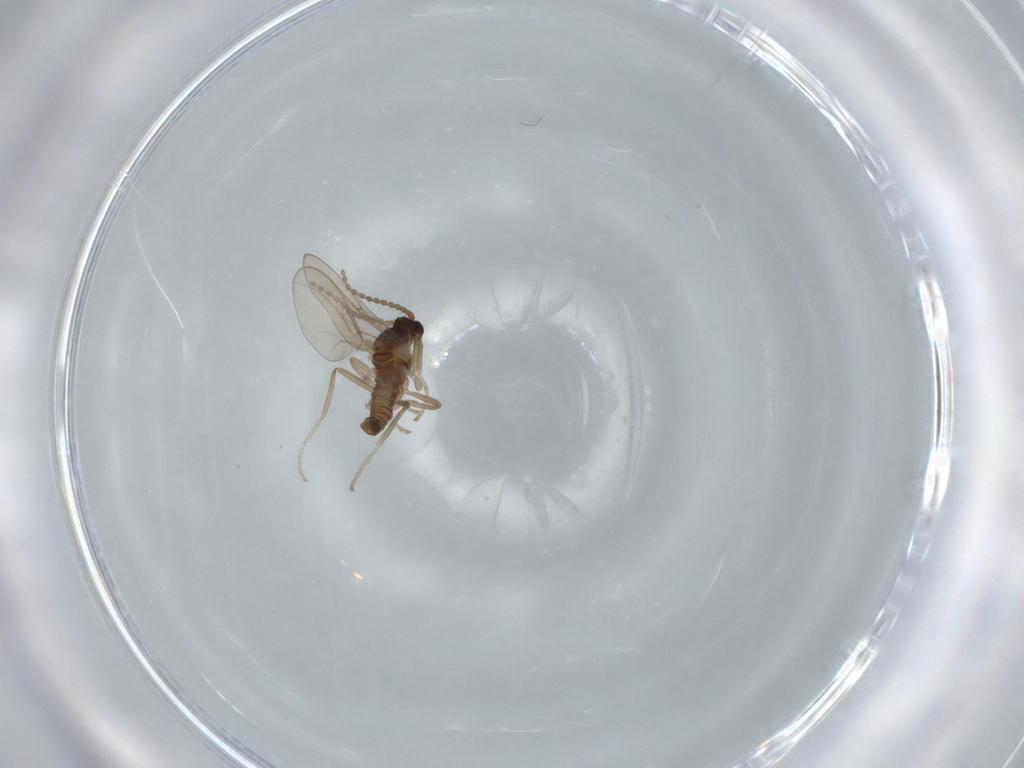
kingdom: Animalia
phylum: Arthropoda
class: Insecta
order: Diptera
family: Cecidomyiidae
